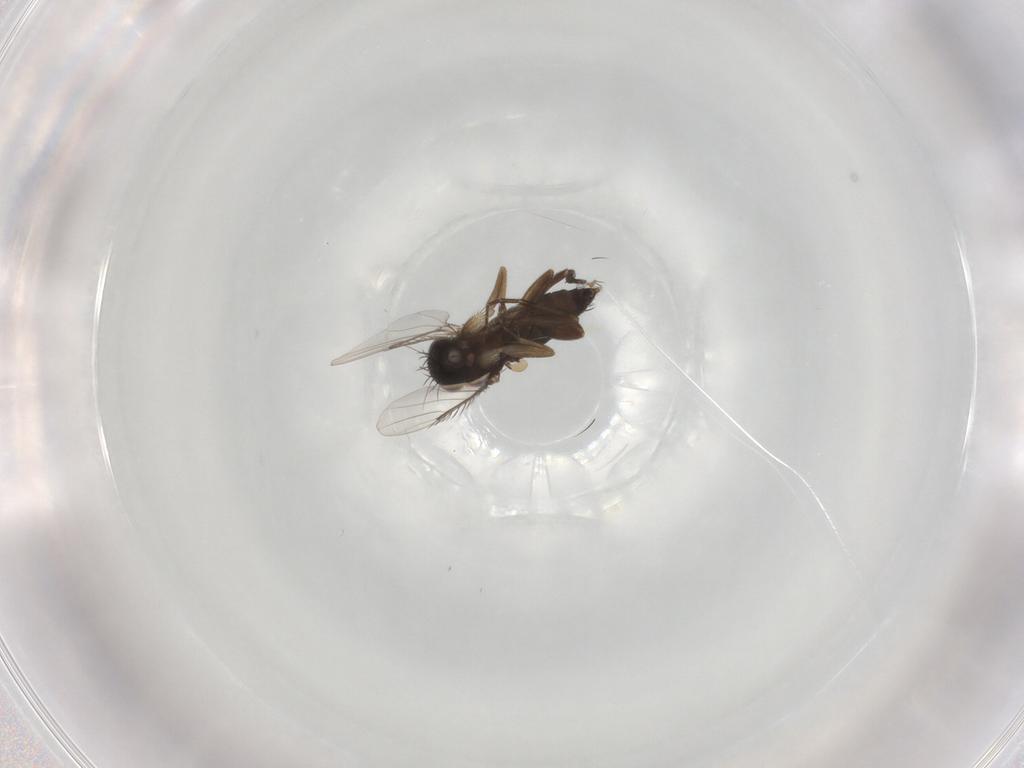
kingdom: Animalia
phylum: Arthropoda
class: Insecta
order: Diptera
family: Phoridae
